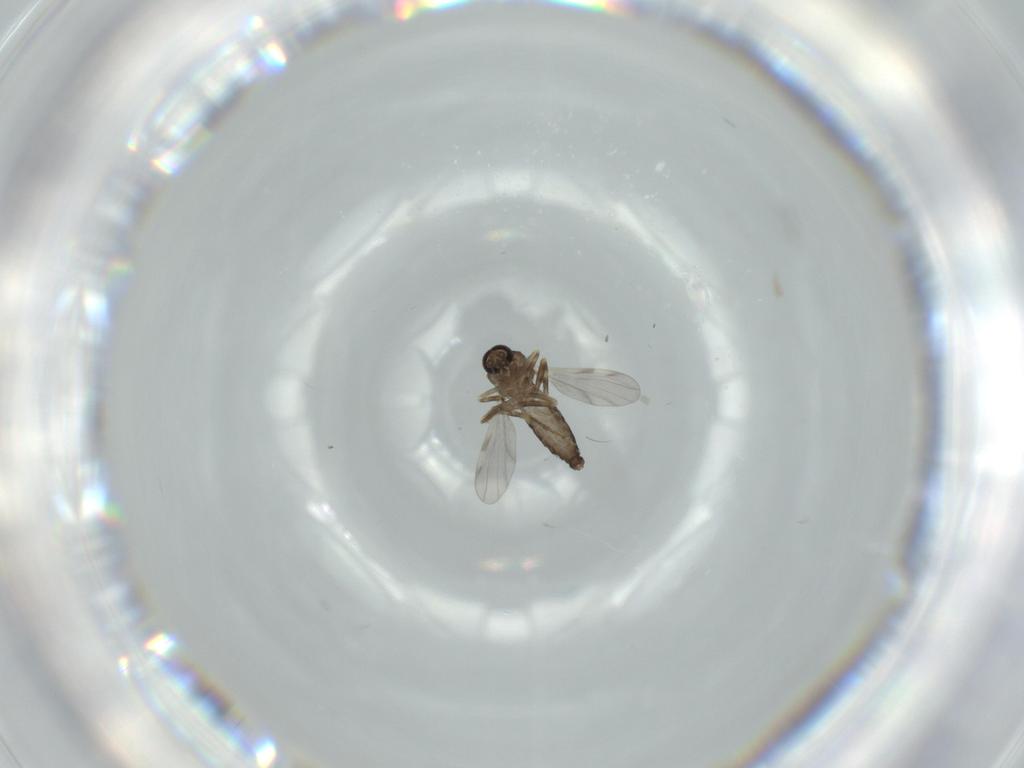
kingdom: Animalia
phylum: Arthropoda
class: Insecta
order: Diptera
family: Ceratopogonidae
